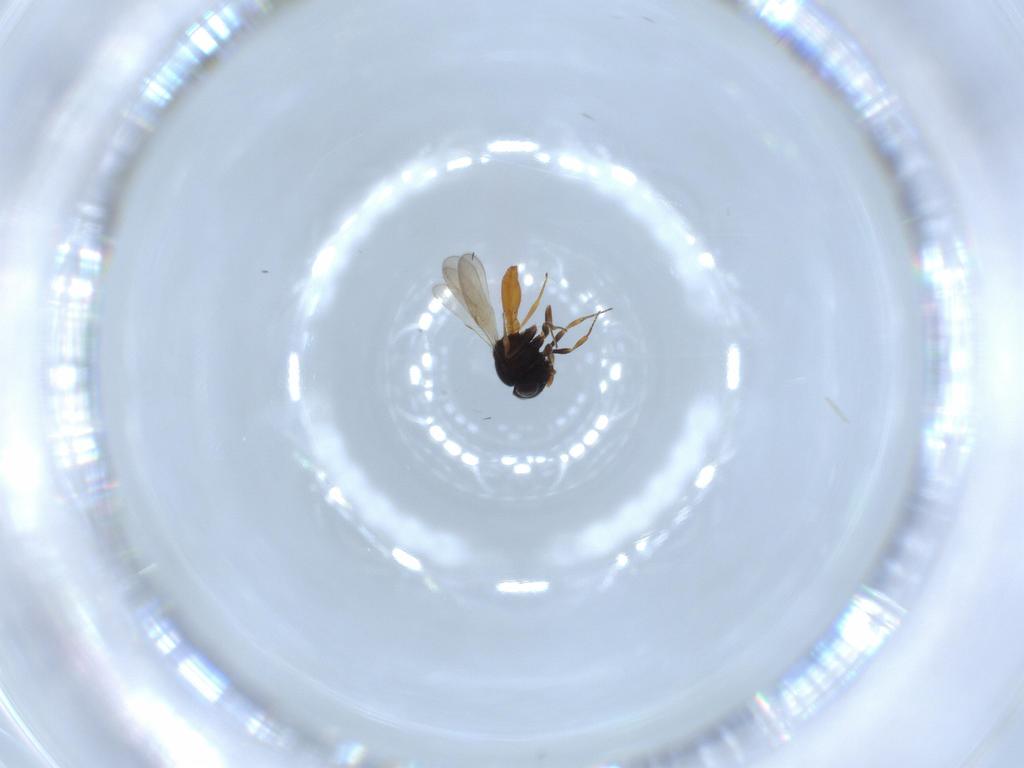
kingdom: Animalia
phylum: Arthropoda
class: Insecta
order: Hymenoptera
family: Scelionidae
